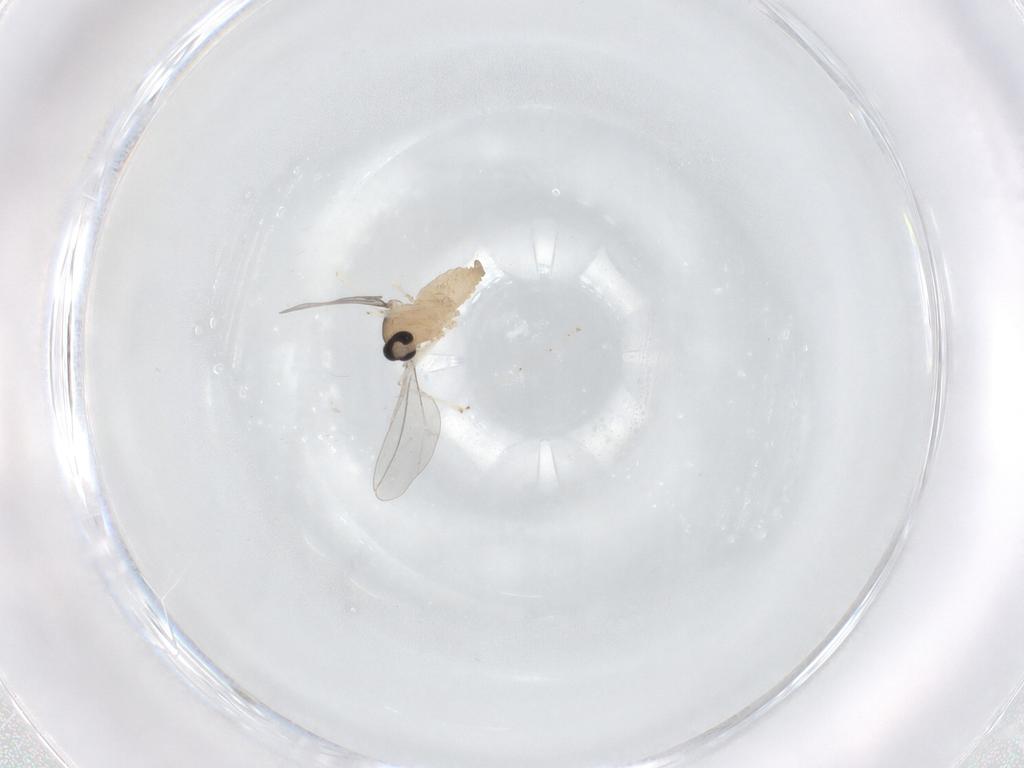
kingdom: Animalia
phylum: Arthropoda
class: Insecta
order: Diptera
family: Cecidomyiidae
